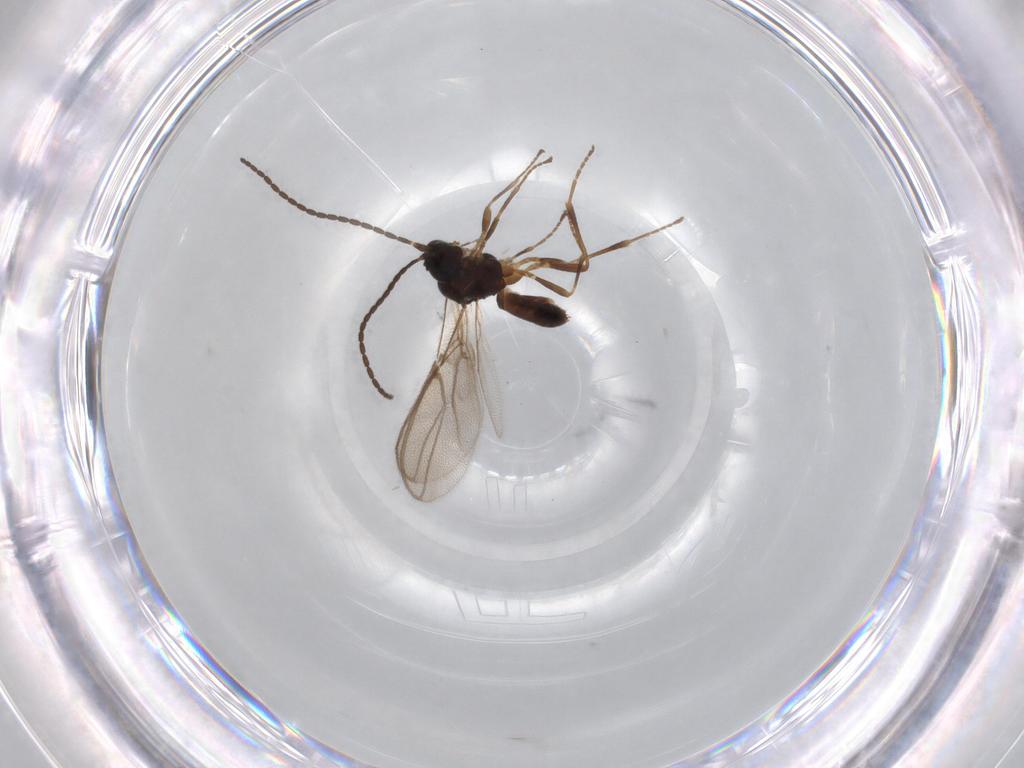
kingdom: Animalia
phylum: Arthropoda
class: Insecta
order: Hymenoptera
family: Braconidae
